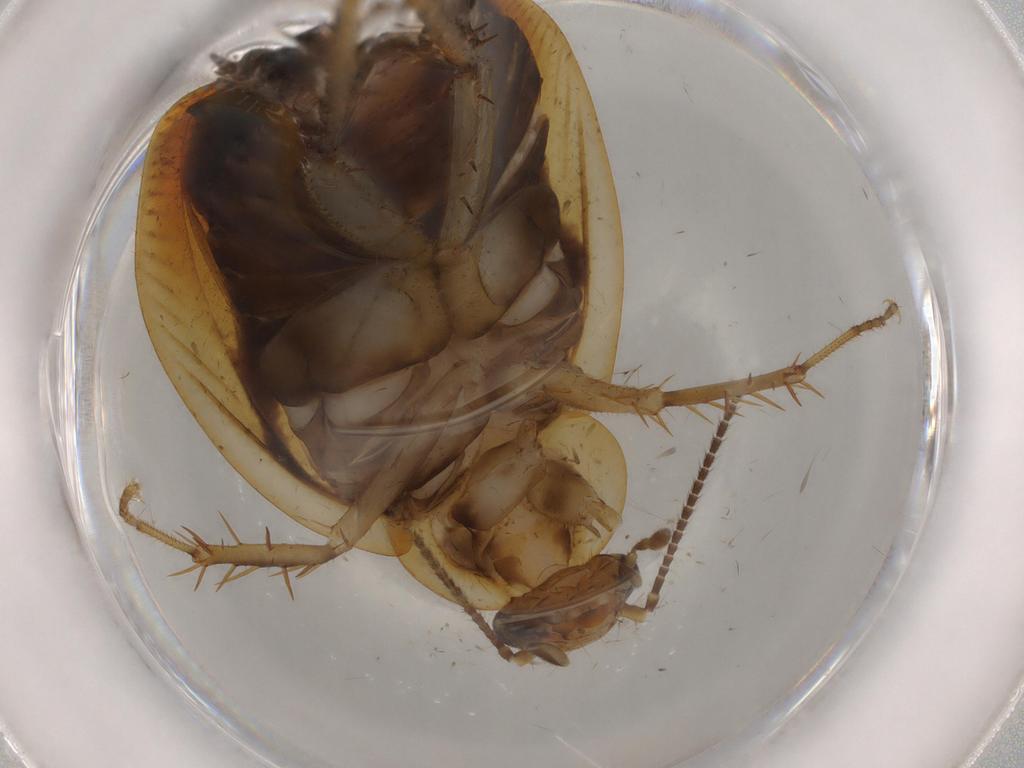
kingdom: Animalia
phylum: Arthropoda
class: Insecta
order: Blattodea
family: Ectobiidae
